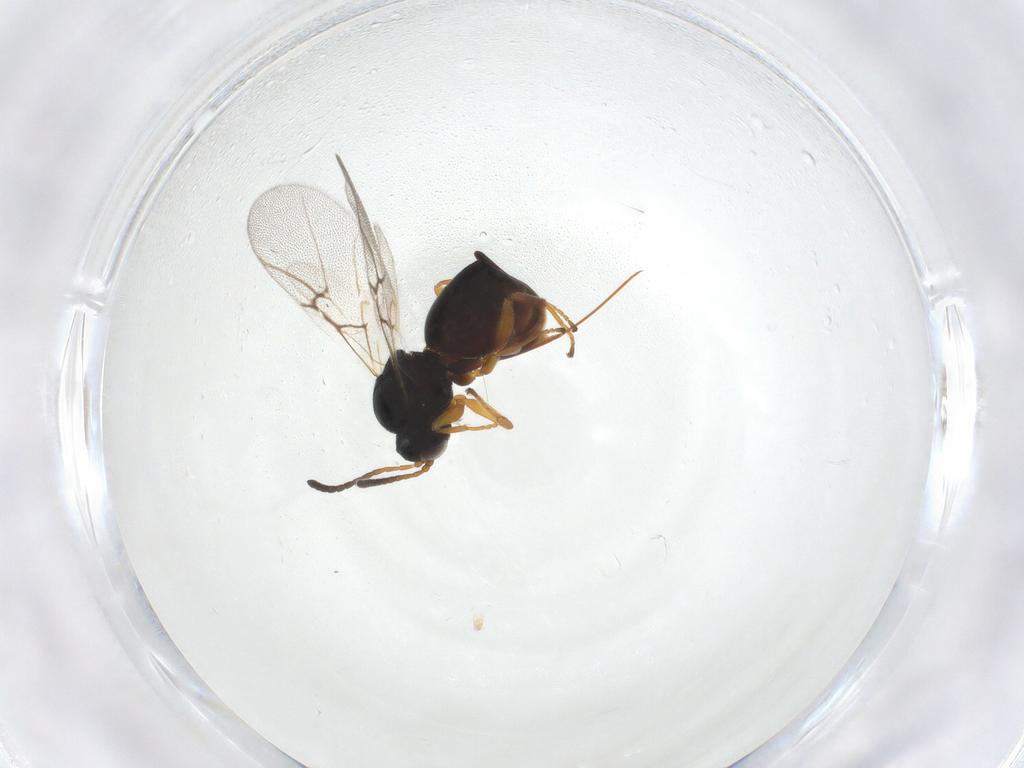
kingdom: Animalia
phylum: Arthropoda
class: Insecta
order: Hymenoptera
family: Cynipidae
